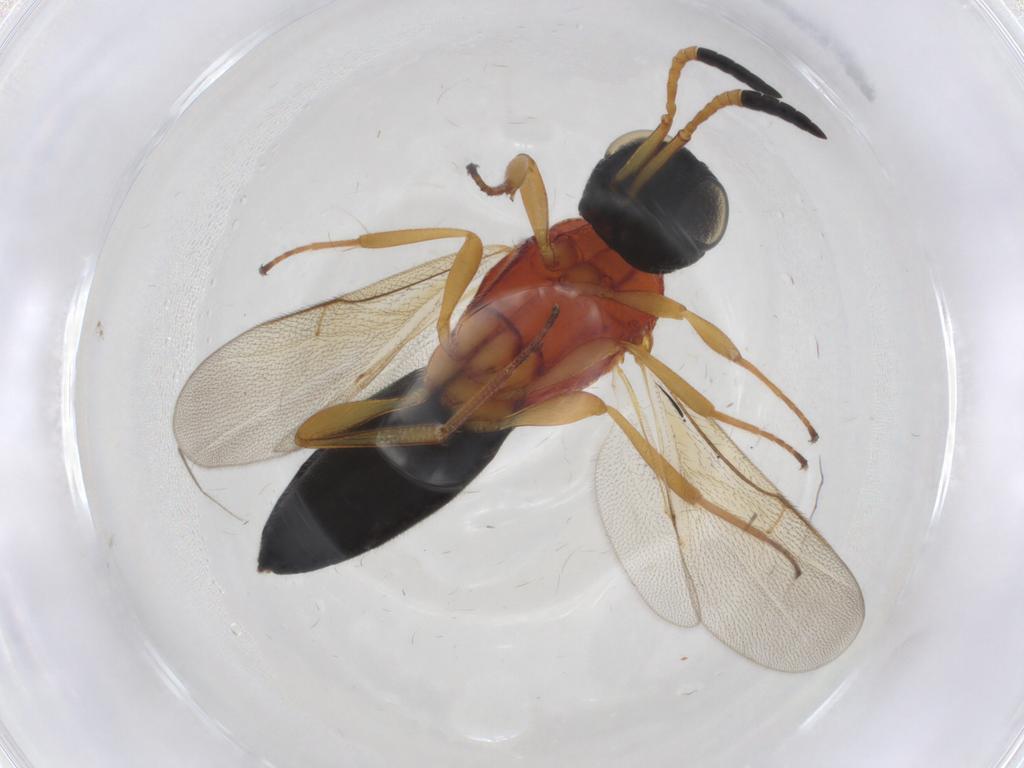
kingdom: Animalia
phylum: Arthropoda
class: Insecta
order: Hymenoptera
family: Scelionidae
